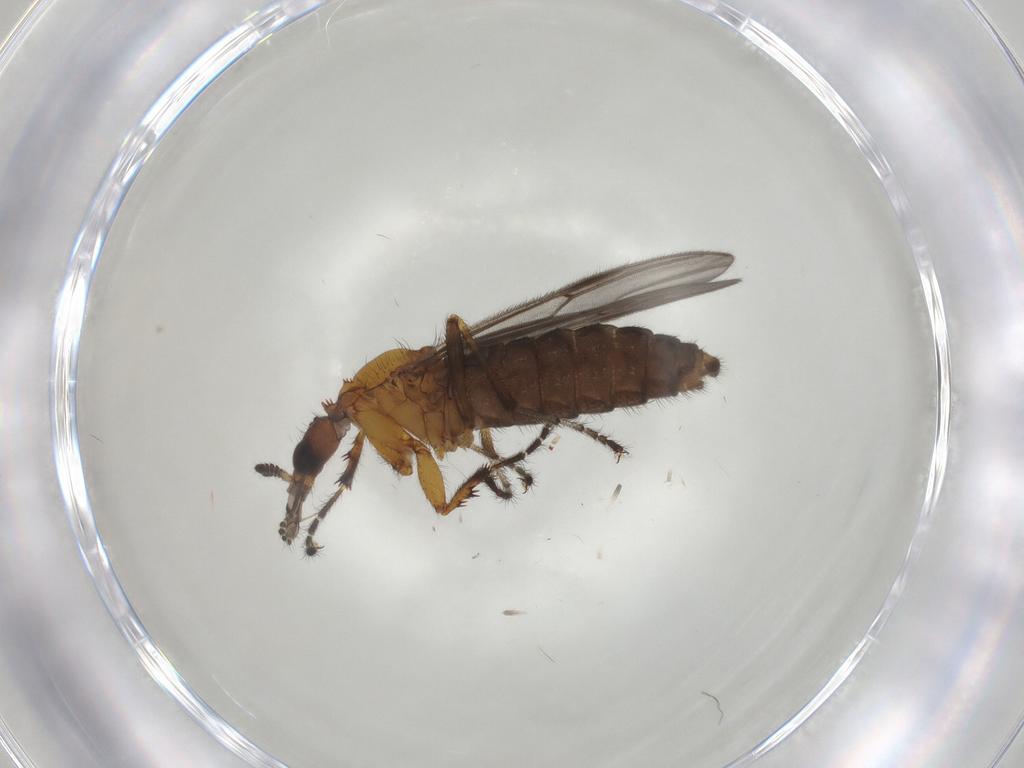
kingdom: Animalia
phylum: Arthropoda
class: Insecta
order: Diptera
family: Bibionidae
